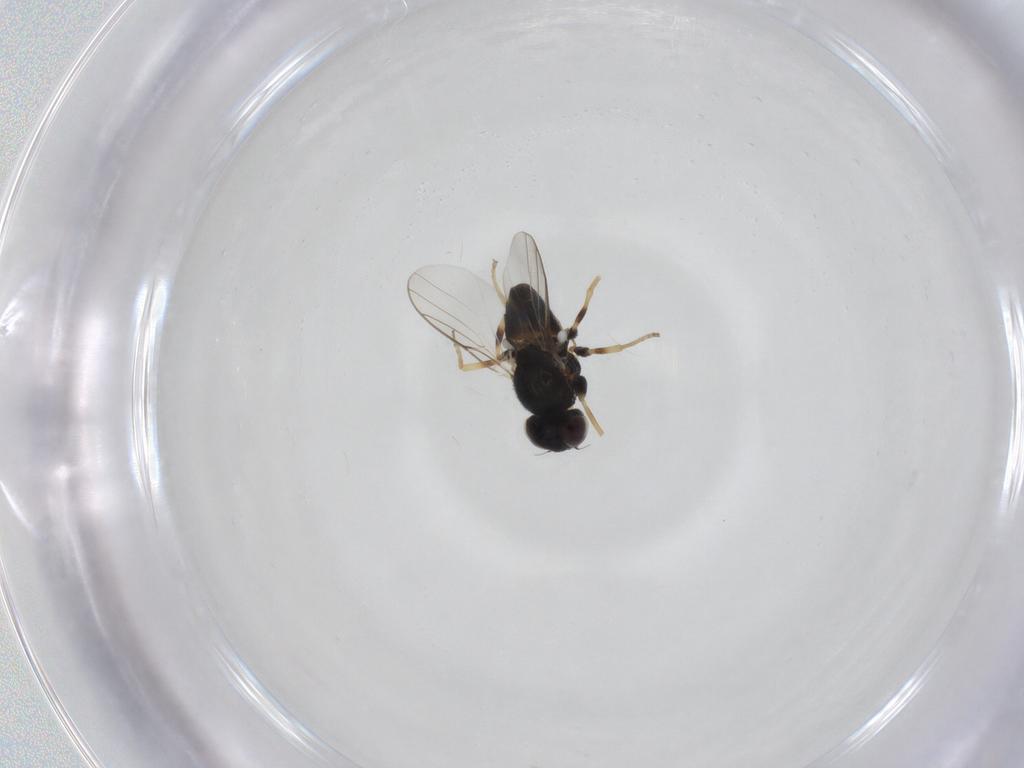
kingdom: Animalia
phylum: Arthropoda
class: Insecta
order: Diptera
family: Chloropidae
